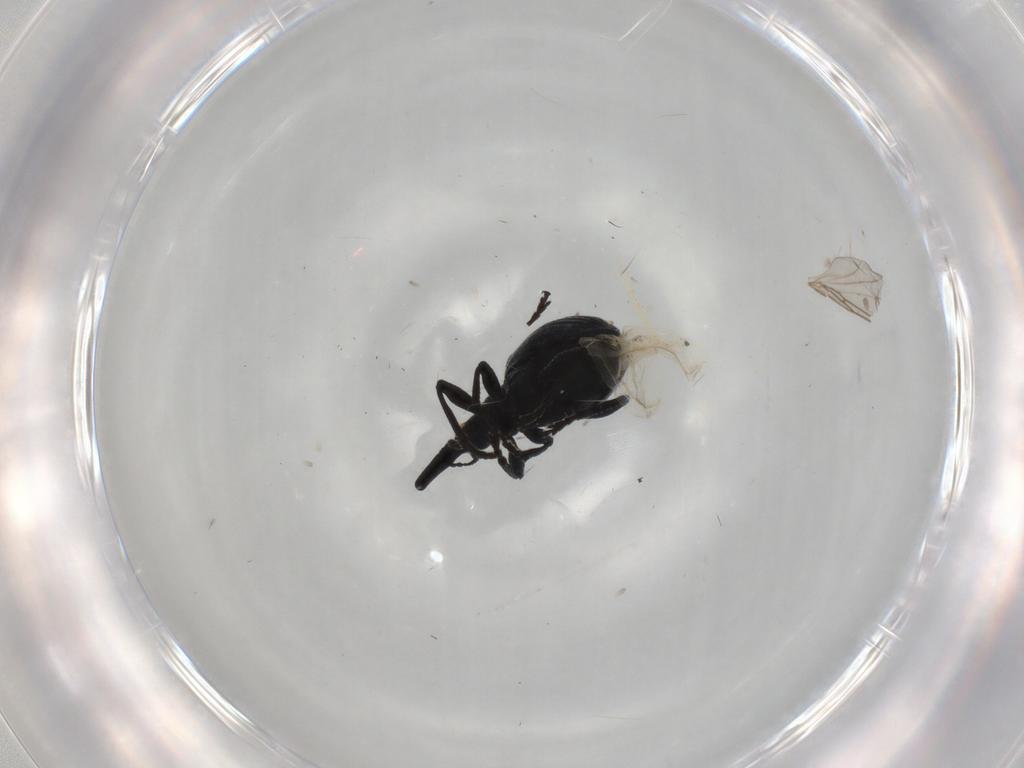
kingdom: Animalia
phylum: Arthropoda
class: Insecta
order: Coleoptera
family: Brentidae
